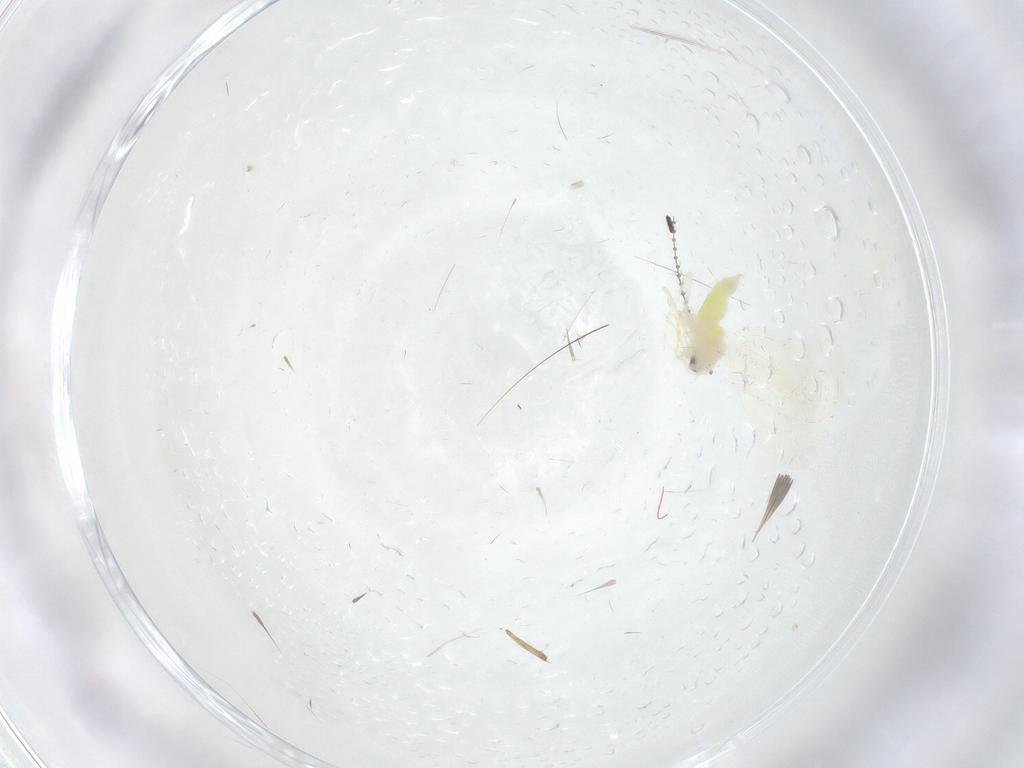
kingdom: Animalia
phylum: Arthropoda
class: Insecta
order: Hemiptera
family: Aleyrodidae
